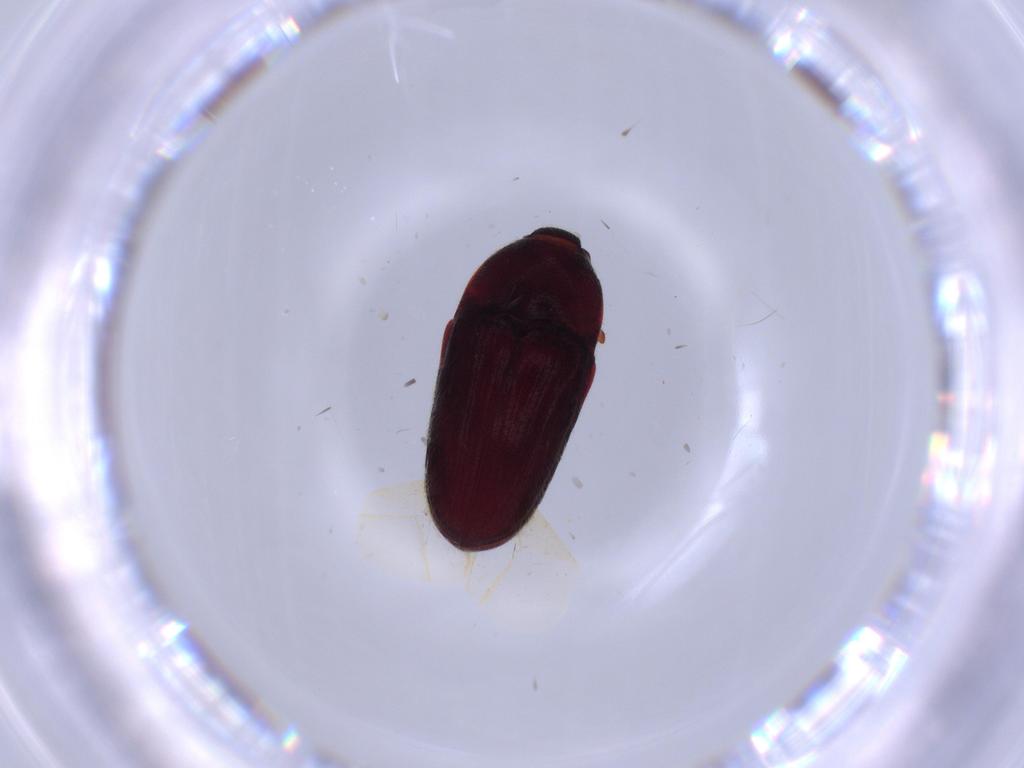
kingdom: Animalia
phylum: Arthropoda
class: Insecta
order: Coleoptera
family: Throscidae
